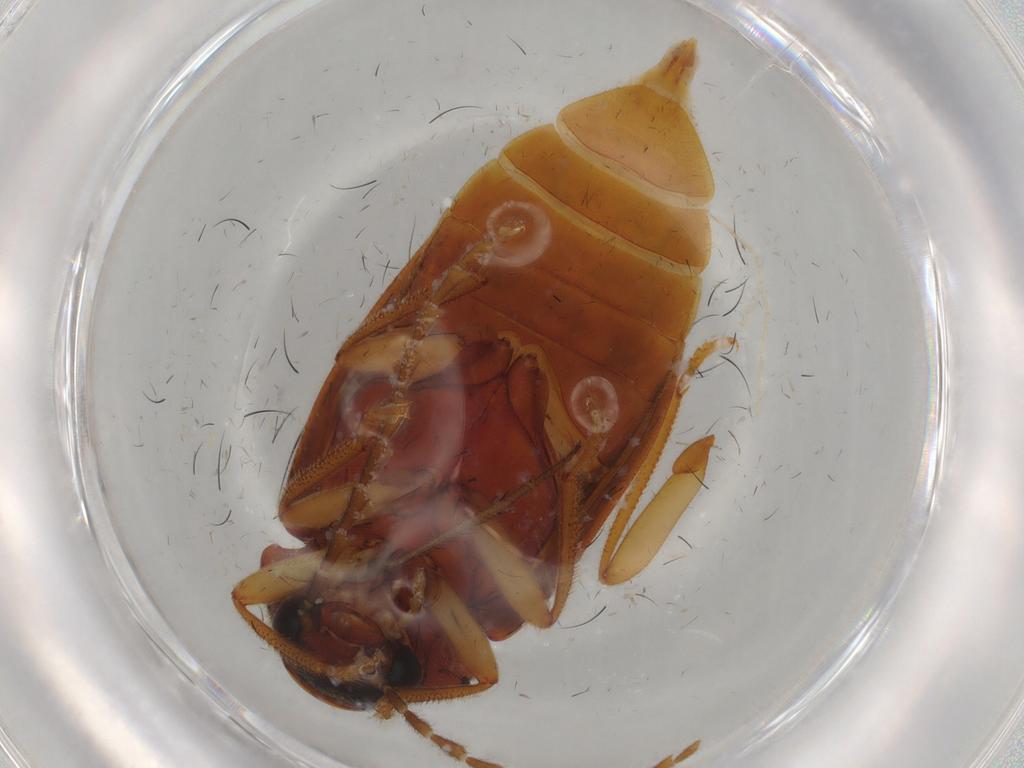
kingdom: Animalia
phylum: Arthropoda
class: Insecta
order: Coleoptera
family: Ptilodactylidae
